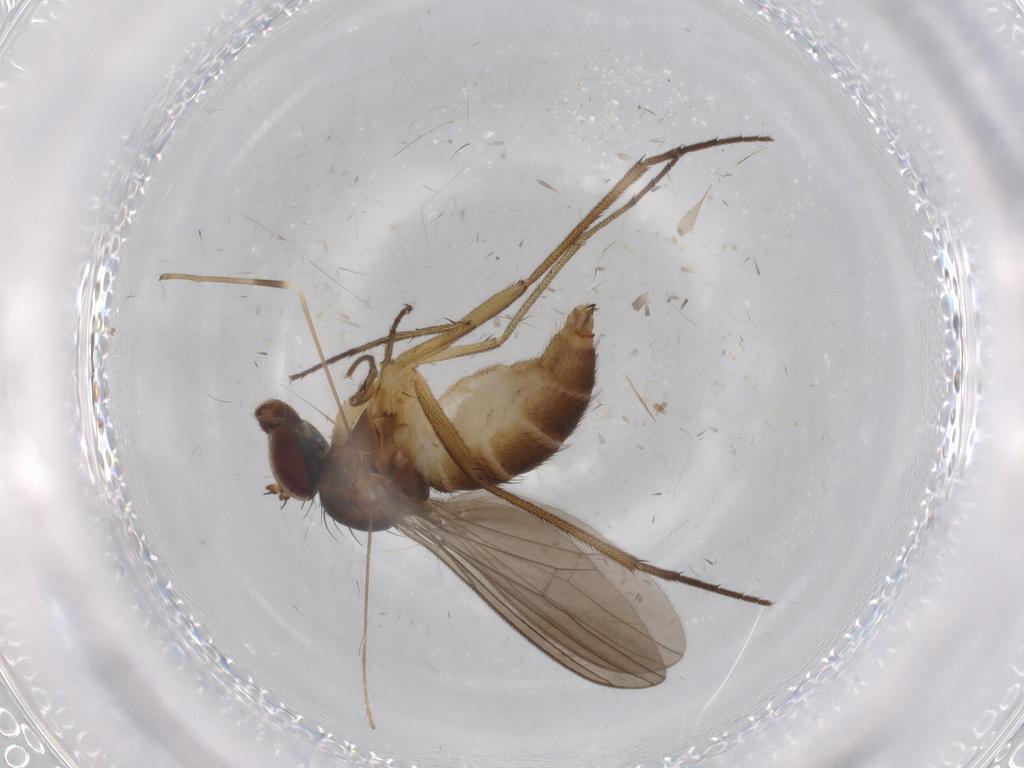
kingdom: Animalia
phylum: Arthropoda
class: Insecta
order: Diptera
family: Dolichopodidae
